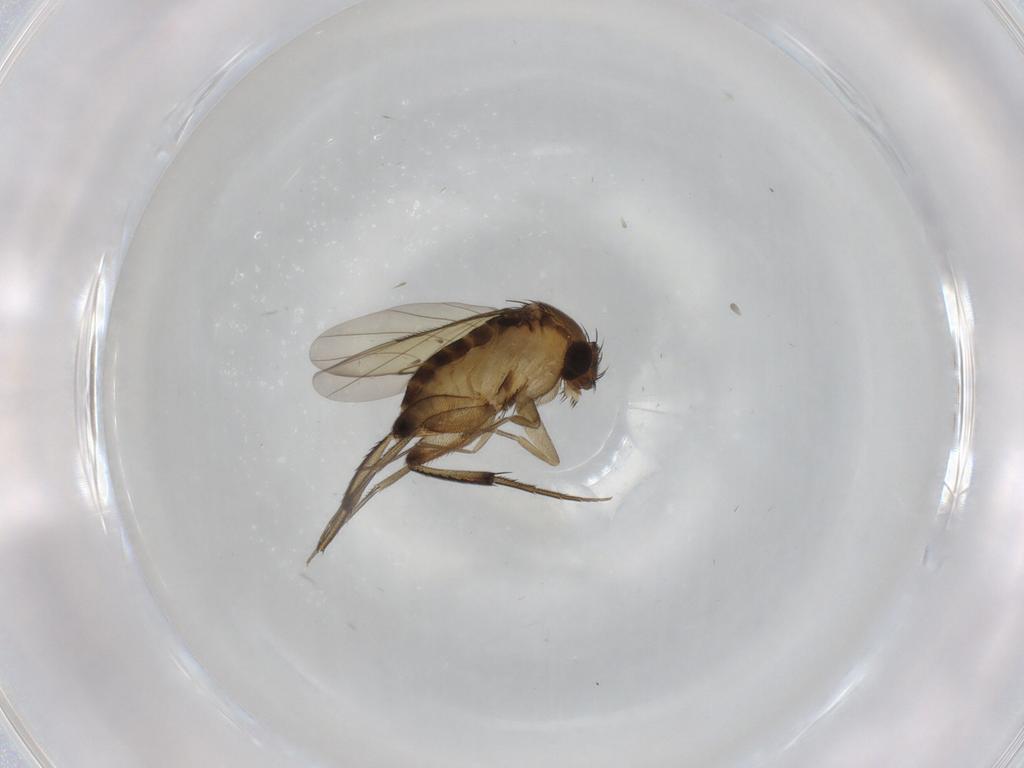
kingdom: Animalia
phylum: Arthropoda
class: Insecta
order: Diptera
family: Phoridae
